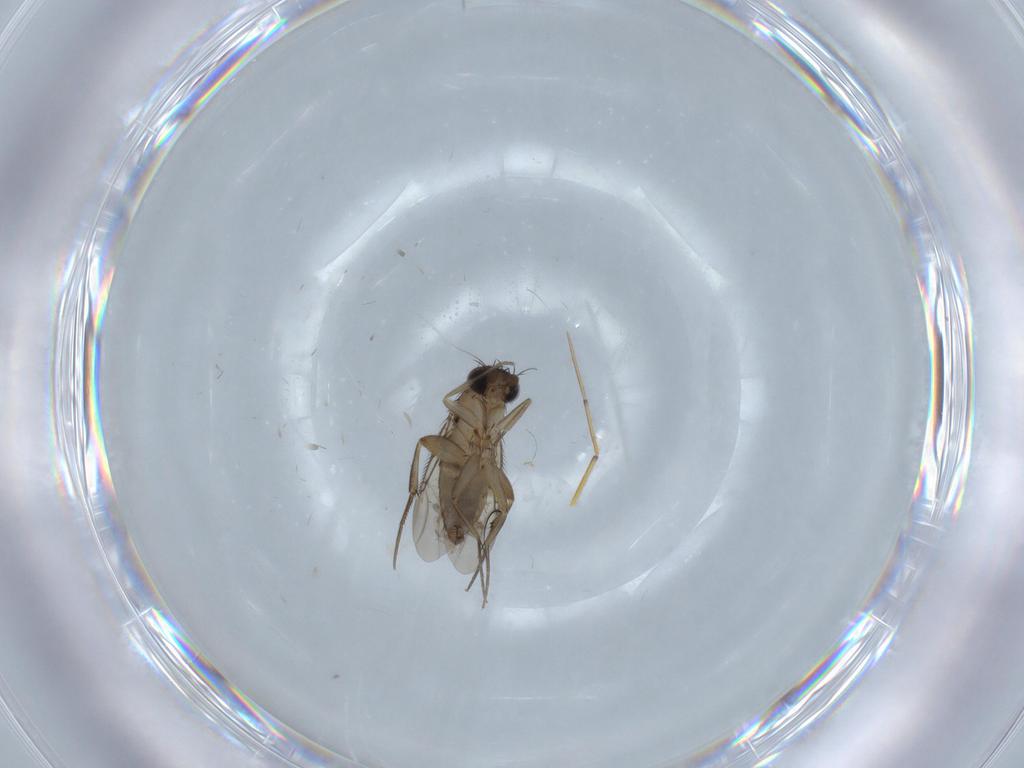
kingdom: Animalia
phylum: Arthropoda
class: Insecta
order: Diptera
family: Phoridae
